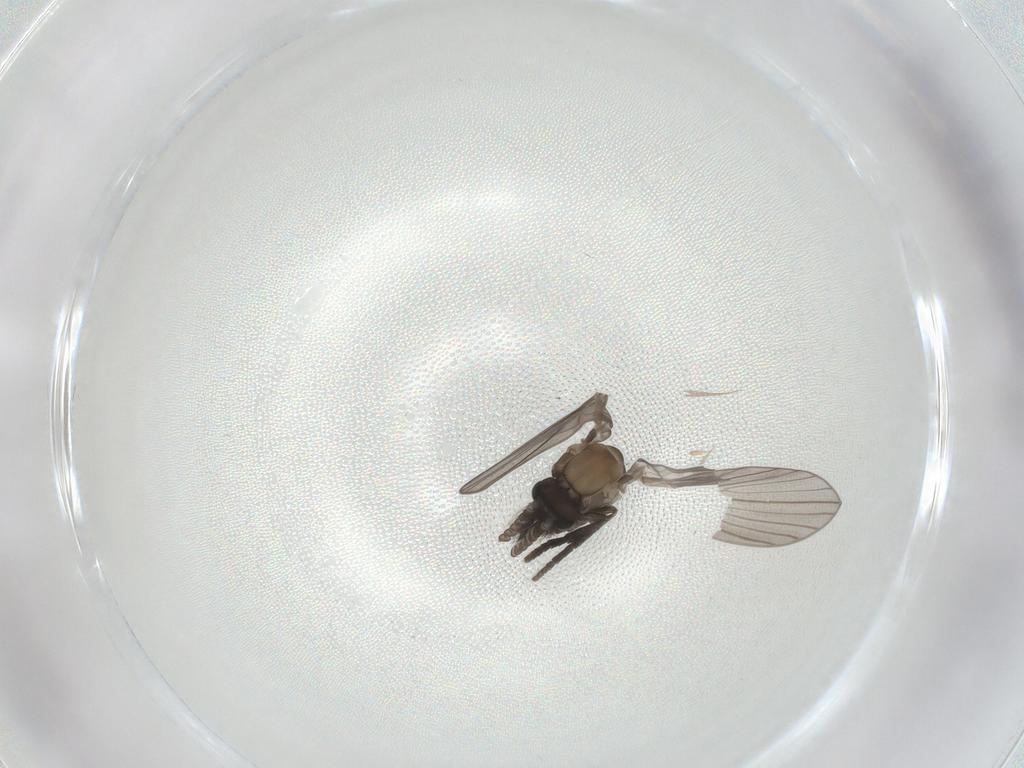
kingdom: Animalia
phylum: Arthropoda
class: Insecta
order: Diptera
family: Psychodidae
